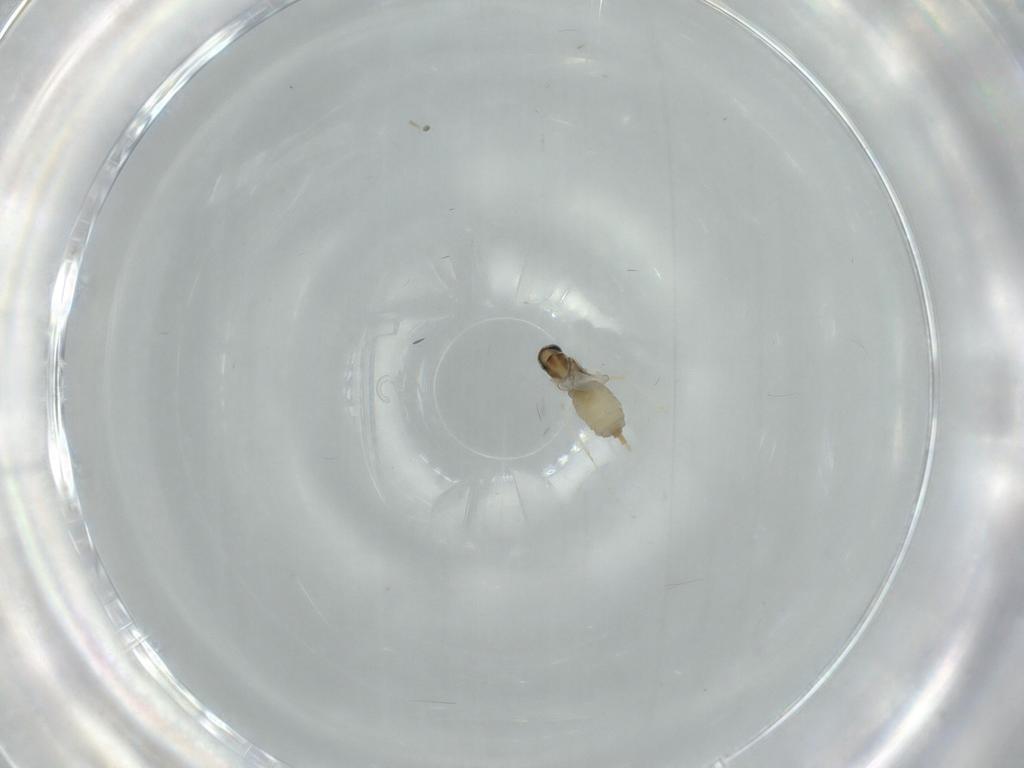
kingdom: Animalia
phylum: Arthropoda
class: Insecta
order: Diptera
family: Cecidomyiidae
